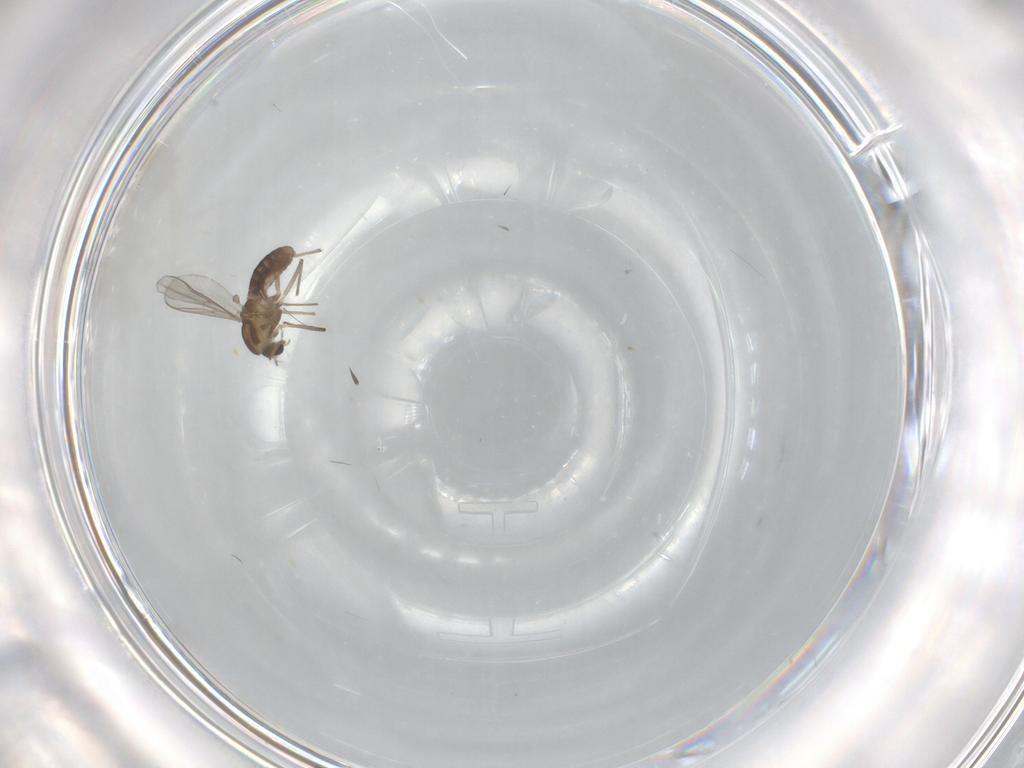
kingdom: Animalia
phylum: Arthropoda
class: Insecta
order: Diptera
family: Chironomidae
